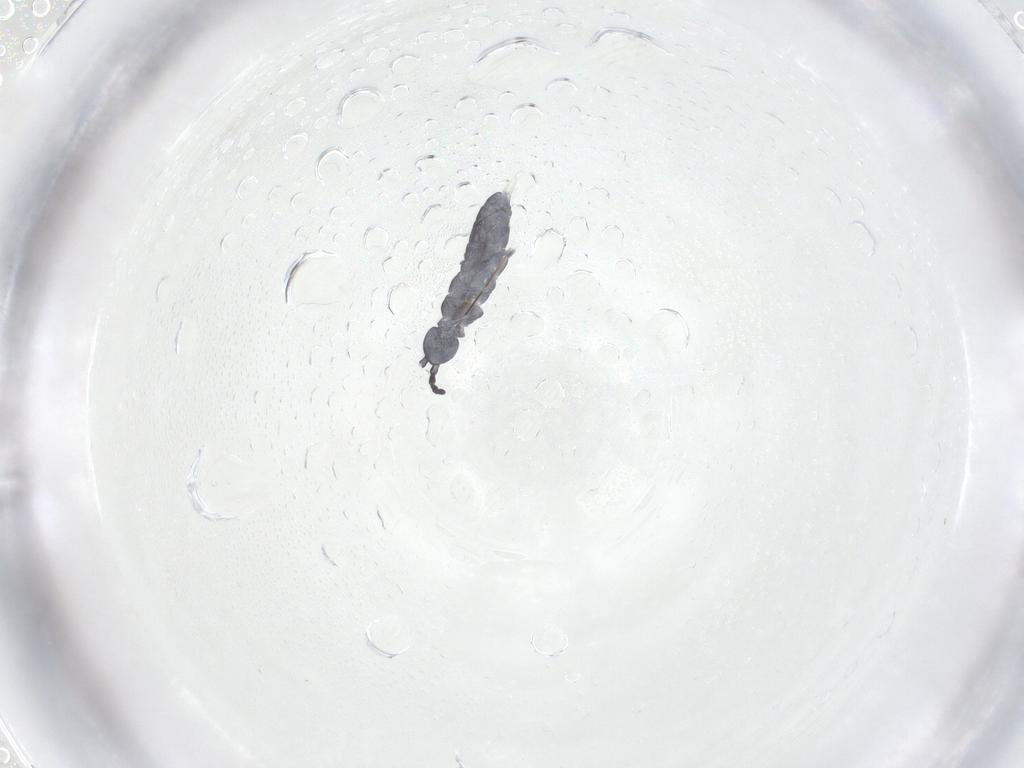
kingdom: Animalia
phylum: Arthropoda
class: Collembola
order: Entomobryomorpha
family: Isotomidae
